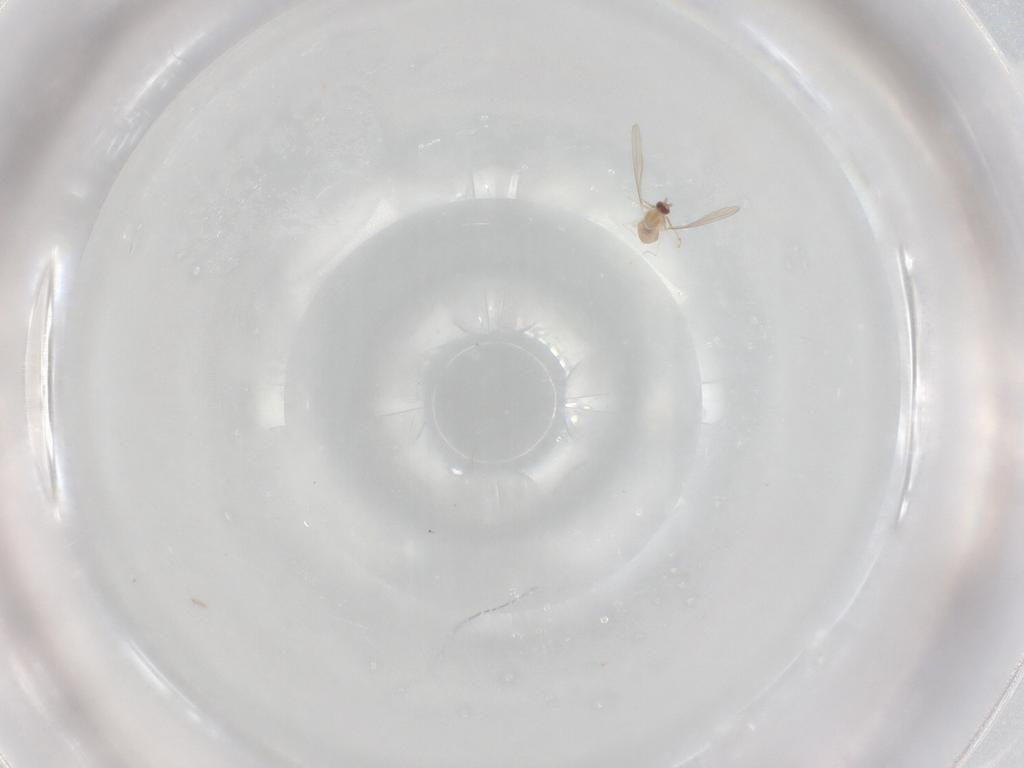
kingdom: Animalia
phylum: Arthropoda
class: Insecta
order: Diptera
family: Cecidomyiidae
